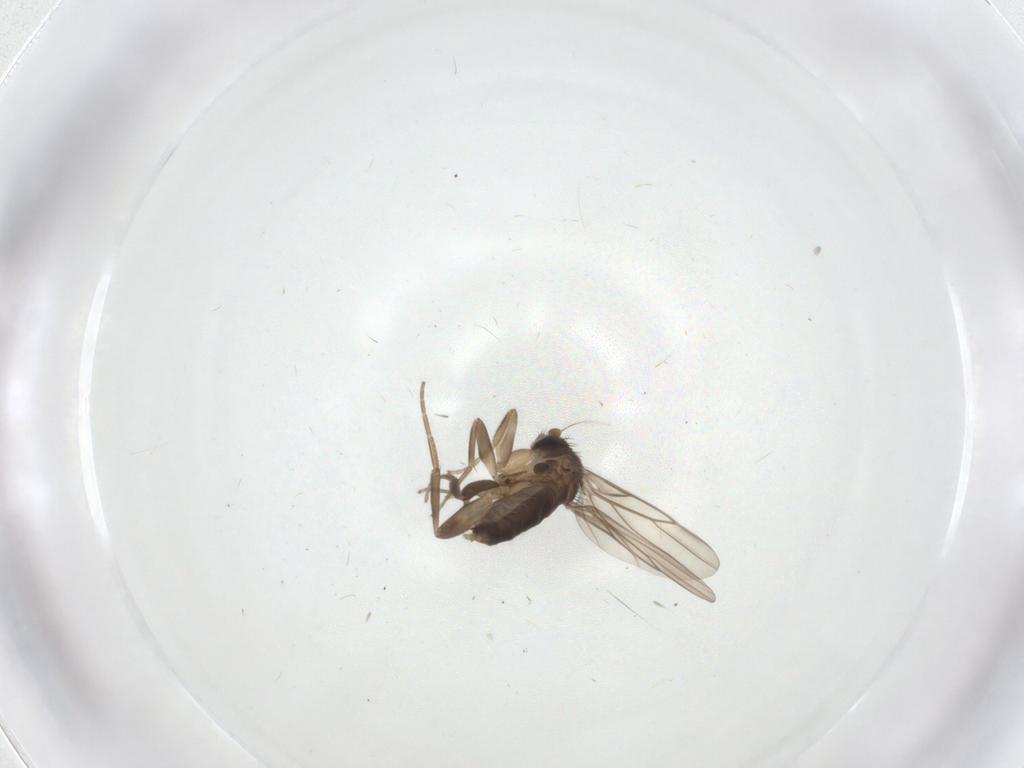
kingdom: Animalia
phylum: Arthropoda
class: Insecta
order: Diptera
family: Phoridae
